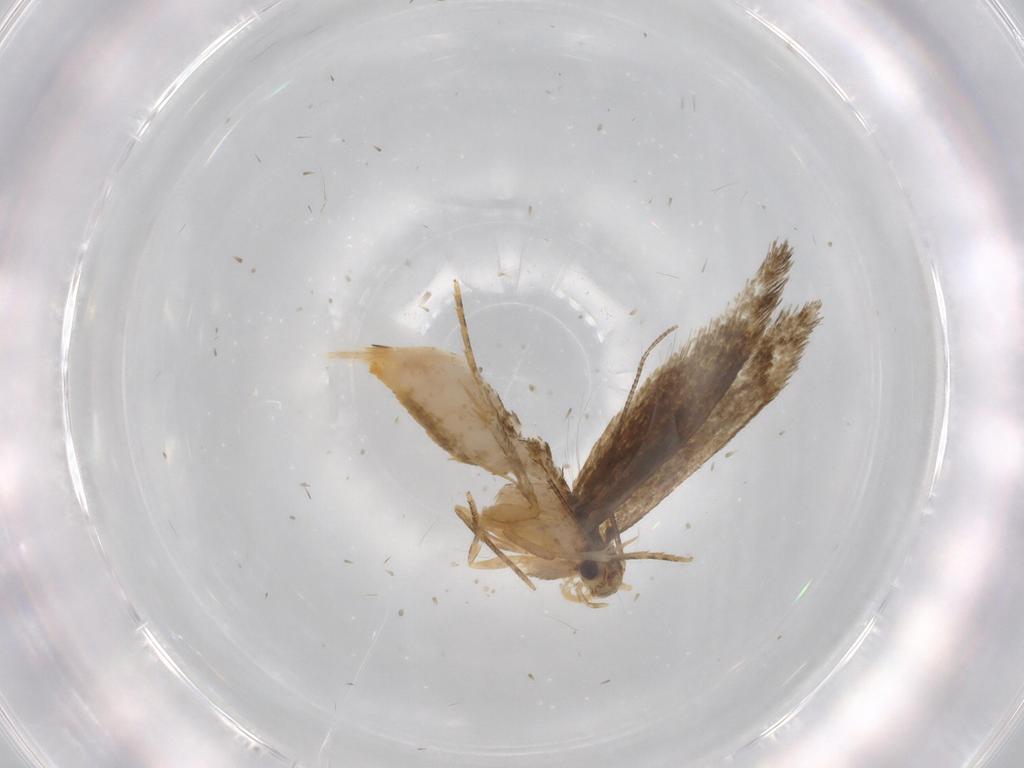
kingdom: Animalia
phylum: Arthropoda
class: Insecta
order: Lepidoptera
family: Tineidae
